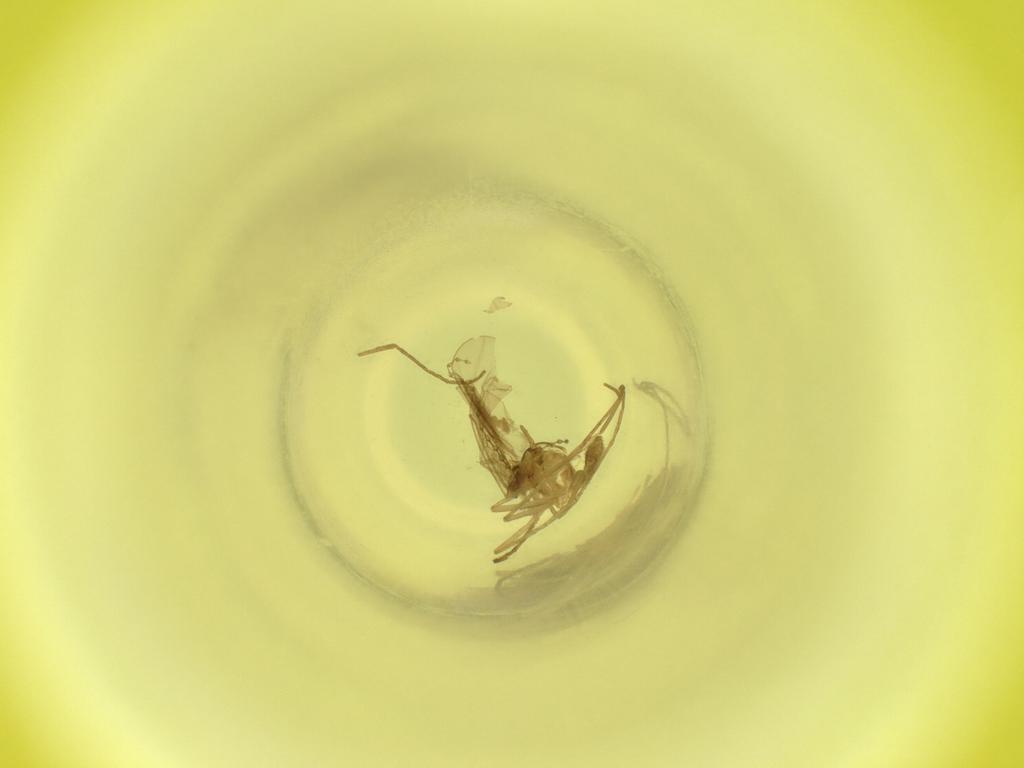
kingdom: Animalia
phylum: Arthropoda
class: Insecta
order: Diptera
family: Cecidomyiidae
